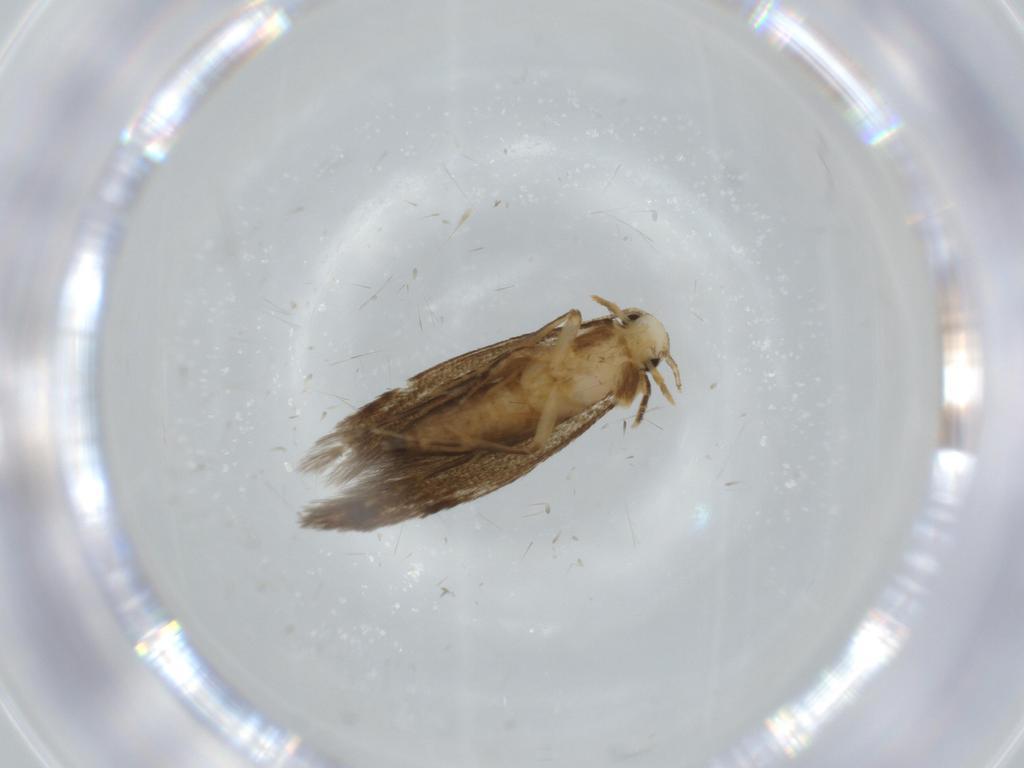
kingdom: Animalia
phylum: Arthropoda
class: Insecta
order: Lepidoptera
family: Tineidae
